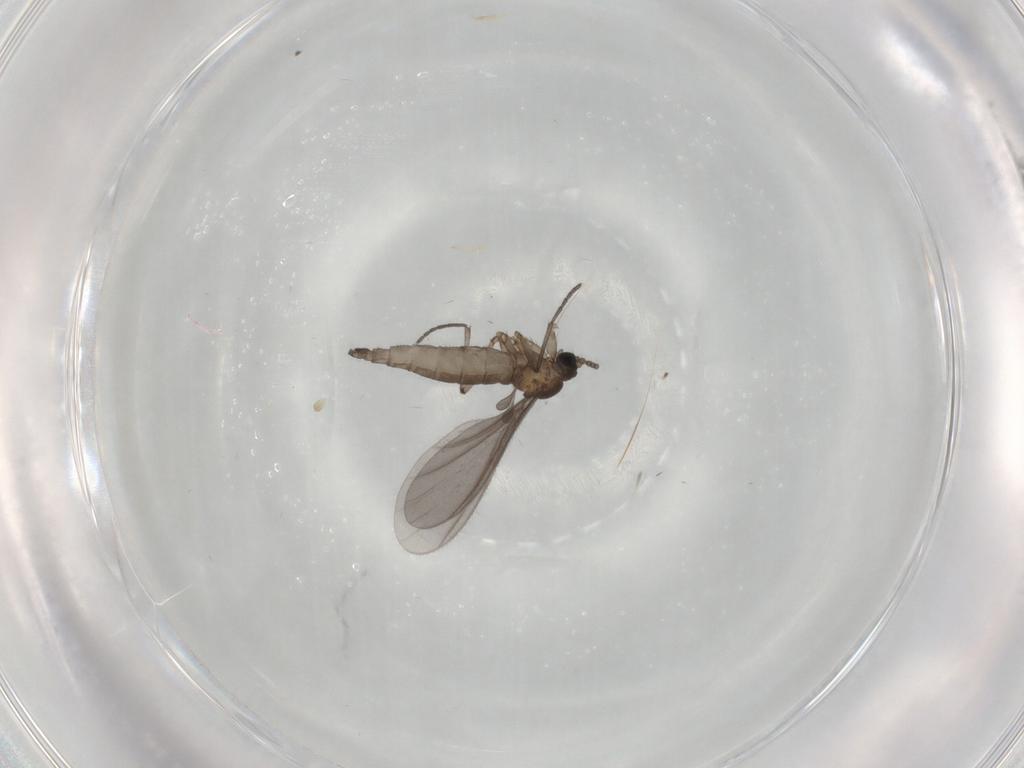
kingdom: Animalia
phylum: Arthropoda
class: Insecta
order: Diptera
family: Sciaridae
